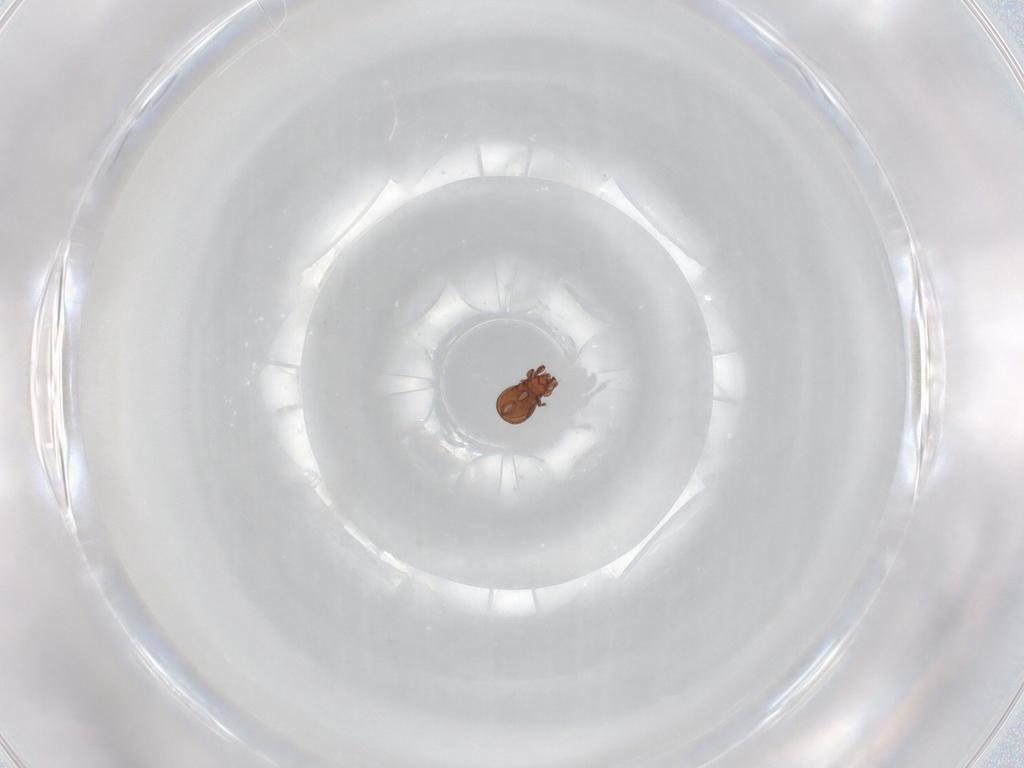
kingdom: Animalia
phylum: Arthropoda
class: Arachnida
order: Sarcoptiformes
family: Eremaeidae
